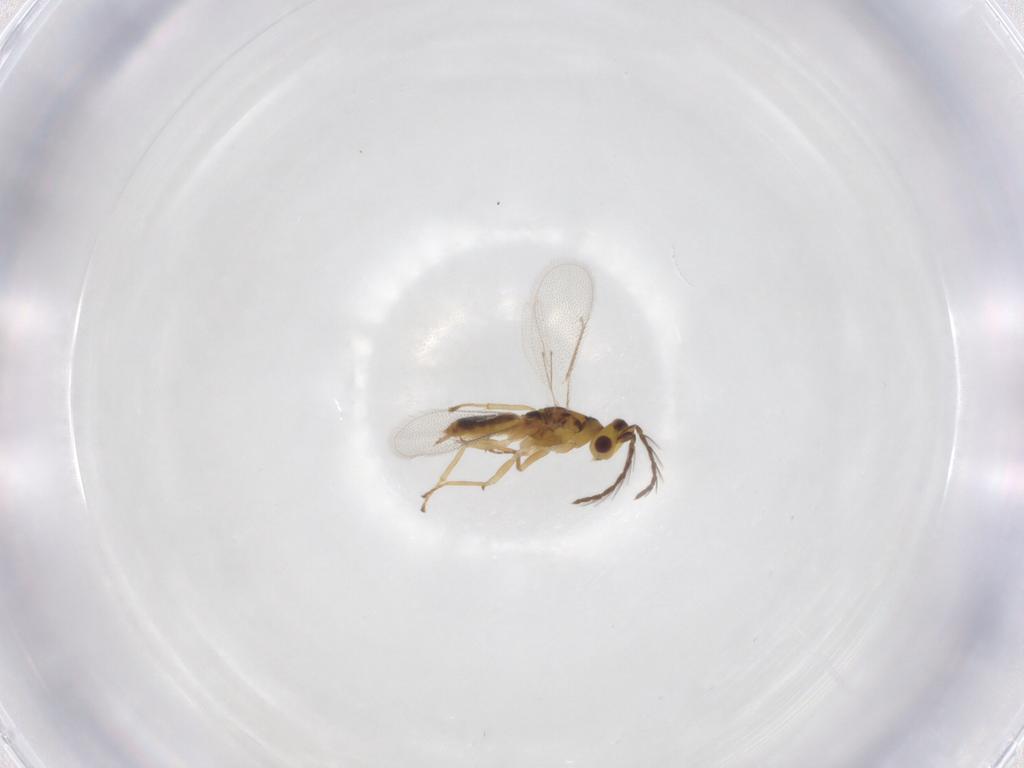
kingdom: Animalia
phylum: Arthropoda
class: Insecta
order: Hymenoptera
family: Eulophidae
